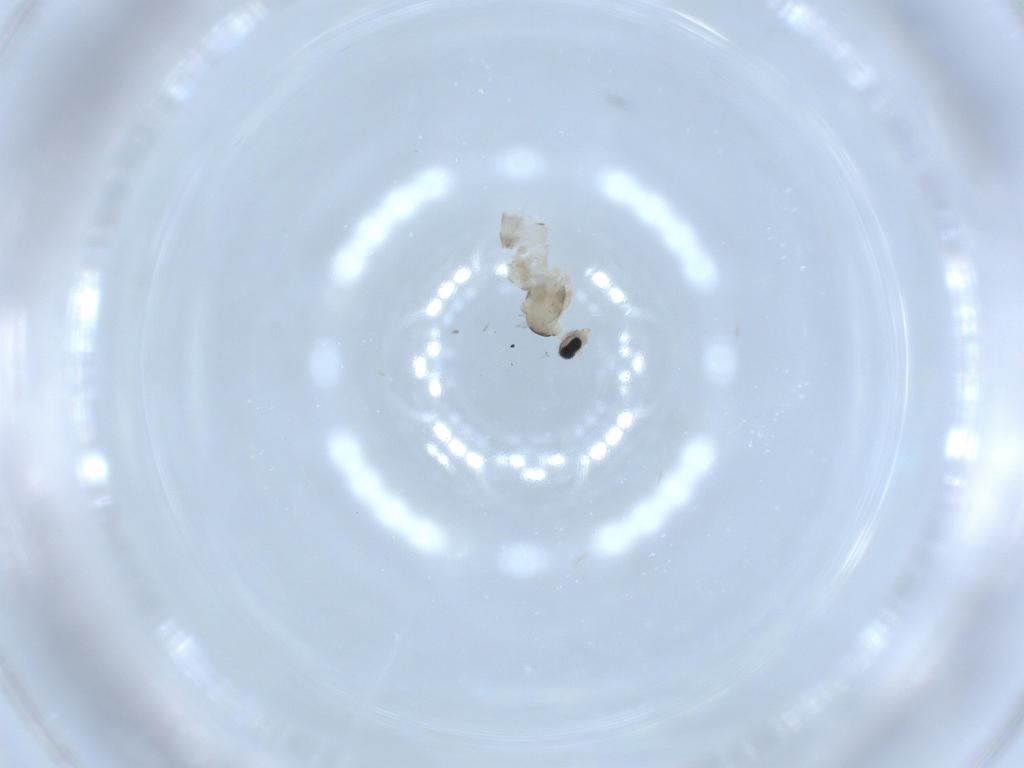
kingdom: Animalia
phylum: Arthropoda
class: Insecta
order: Diptera
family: Cecidomyiidae
